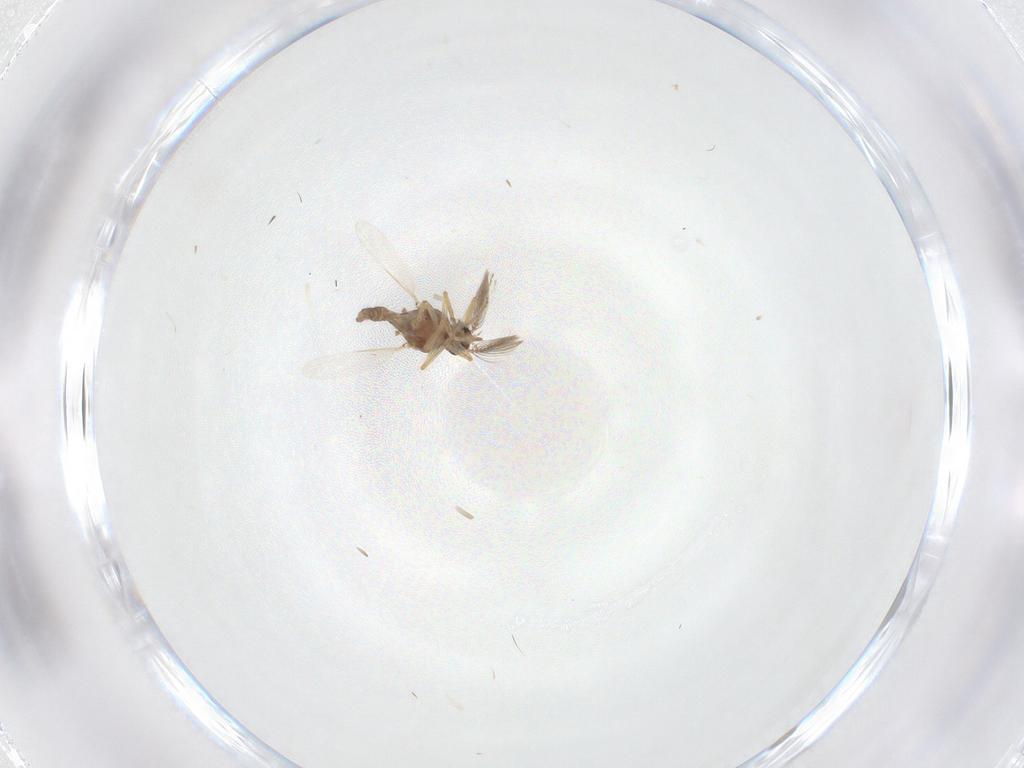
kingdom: Animalia
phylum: Arthropoda
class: Insecta
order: Diptera
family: Ceratopogonidae
